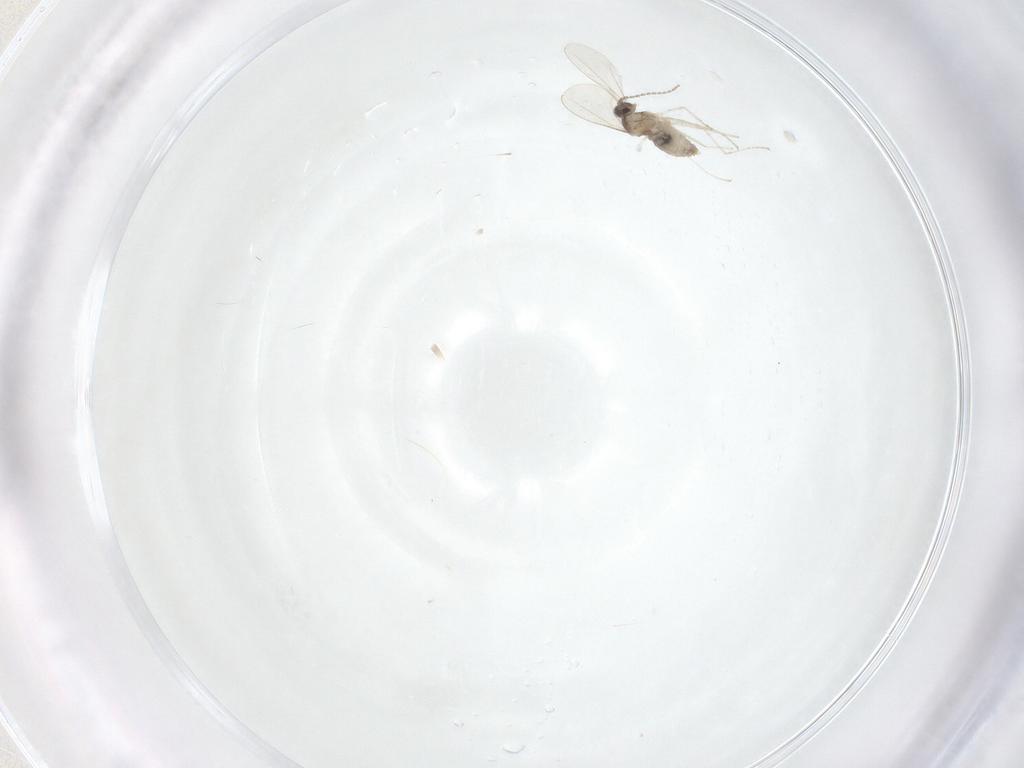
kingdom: Animalia
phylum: Arthropoda
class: Insecta
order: Diptera
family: Cecidomyiidae
